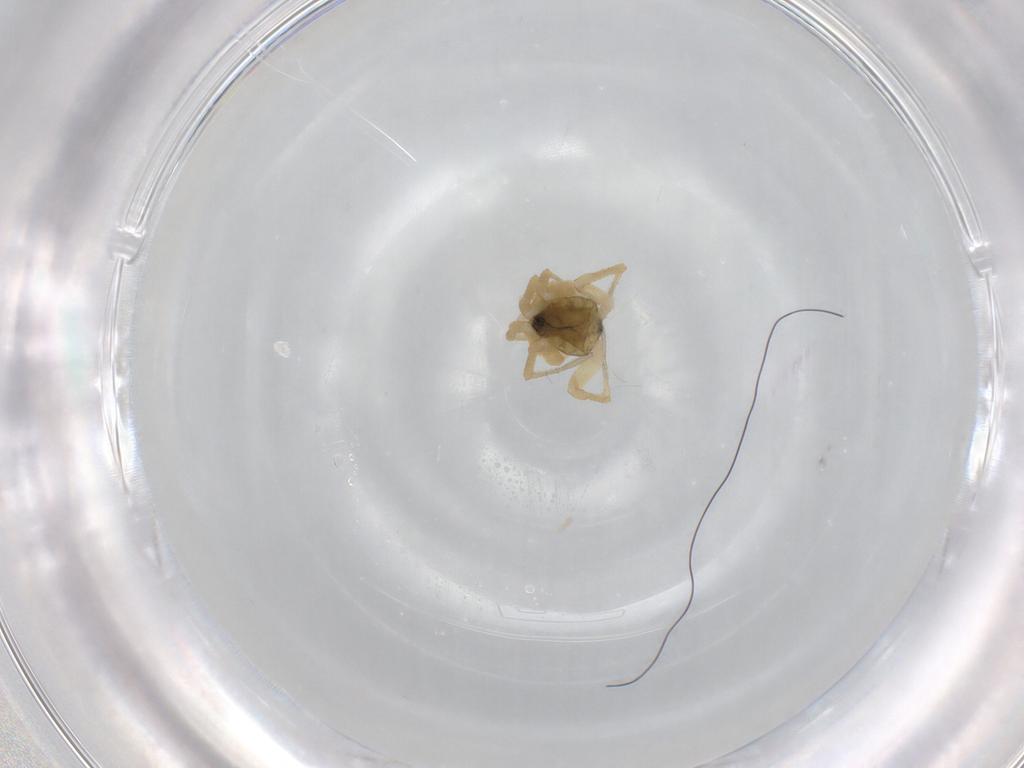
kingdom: Animalia
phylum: Arthropoda
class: Arachnida
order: Araneae
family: Linyphiidae
